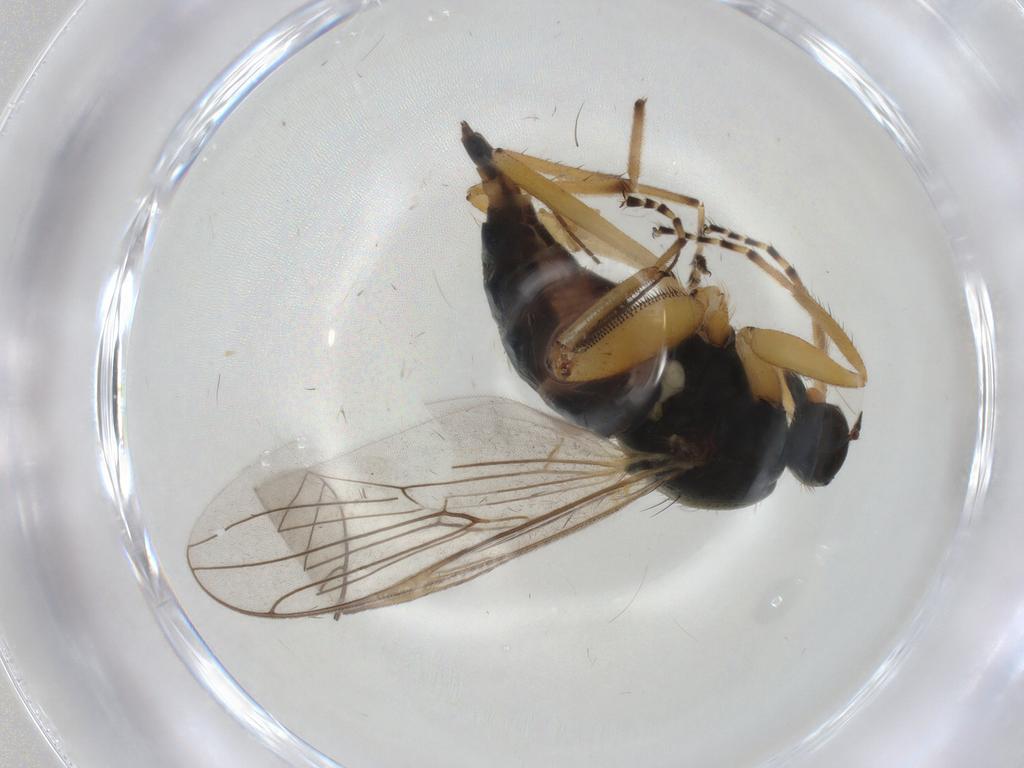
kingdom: Animalia
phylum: Arthropoda
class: Insecta
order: Diptera
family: Hybotidae
